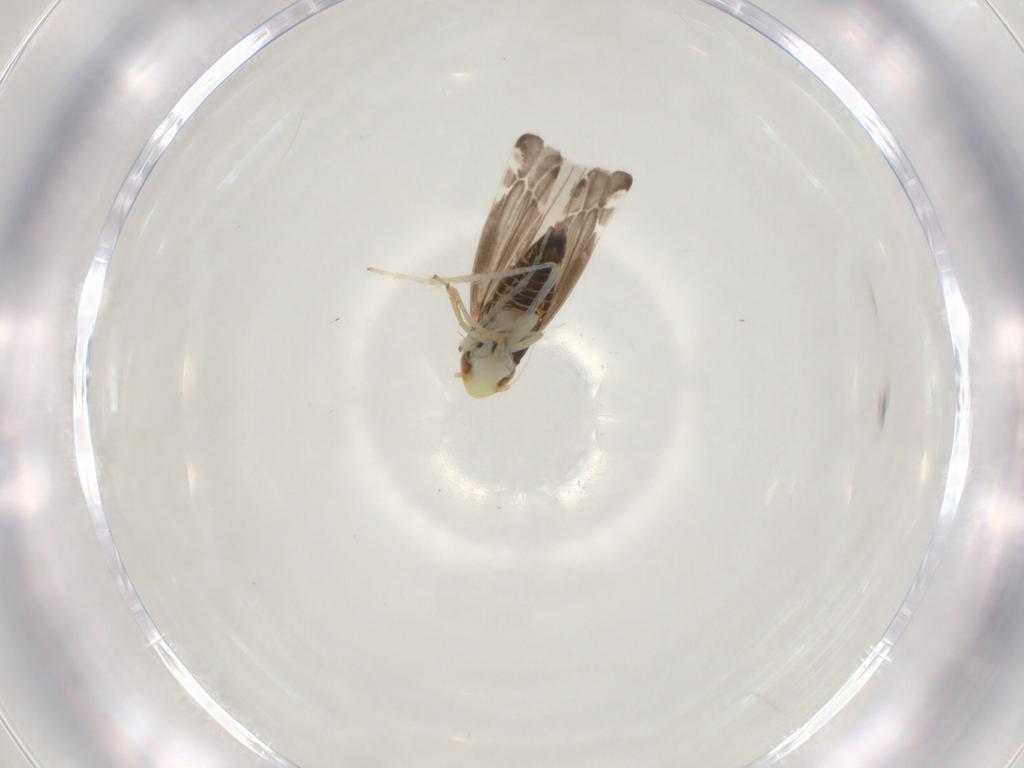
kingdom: Animalia
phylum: Arthropoda
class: Insecta
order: Hemiptera
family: Cicadellidae
